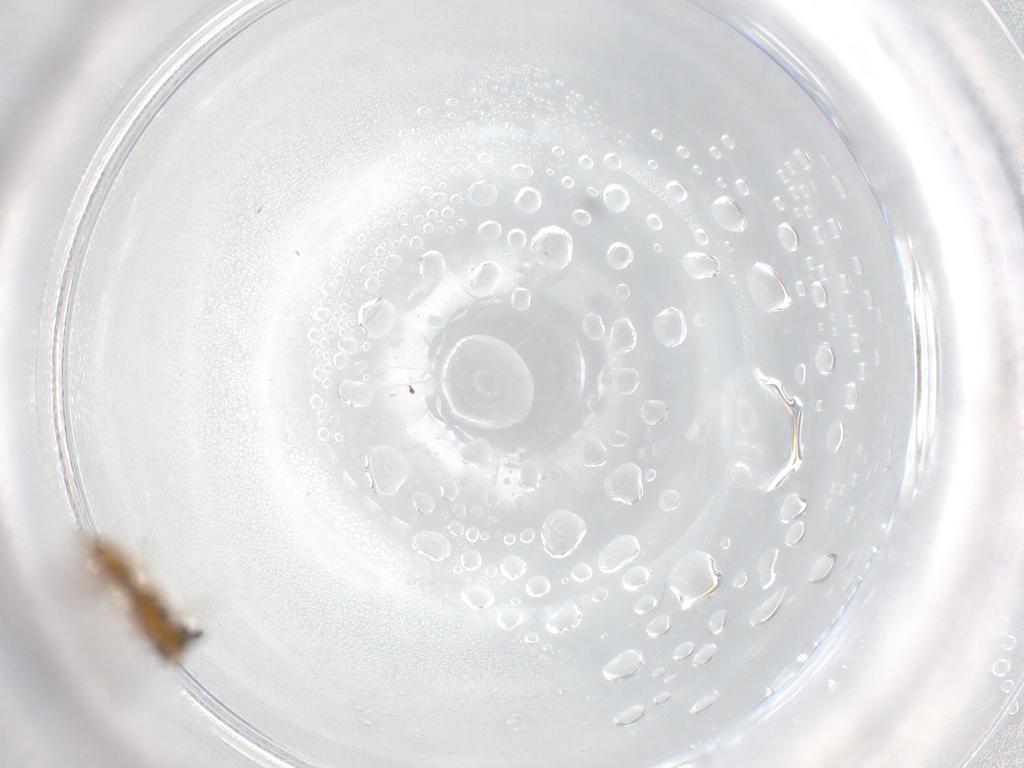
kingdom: Animalia
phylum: Arthropoda
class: Insecta
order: Hymenoptera
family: Scelionidae
